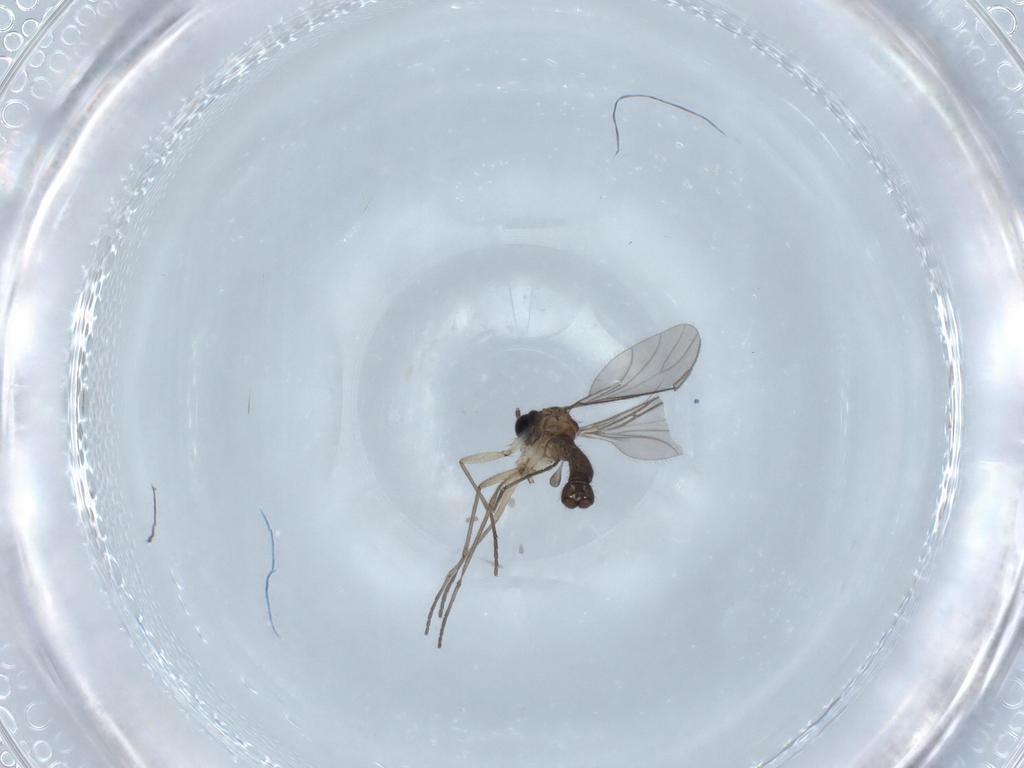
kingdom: Animalia
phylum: Arthropoda
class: Insecta
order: Diptera
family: Sciaridae
